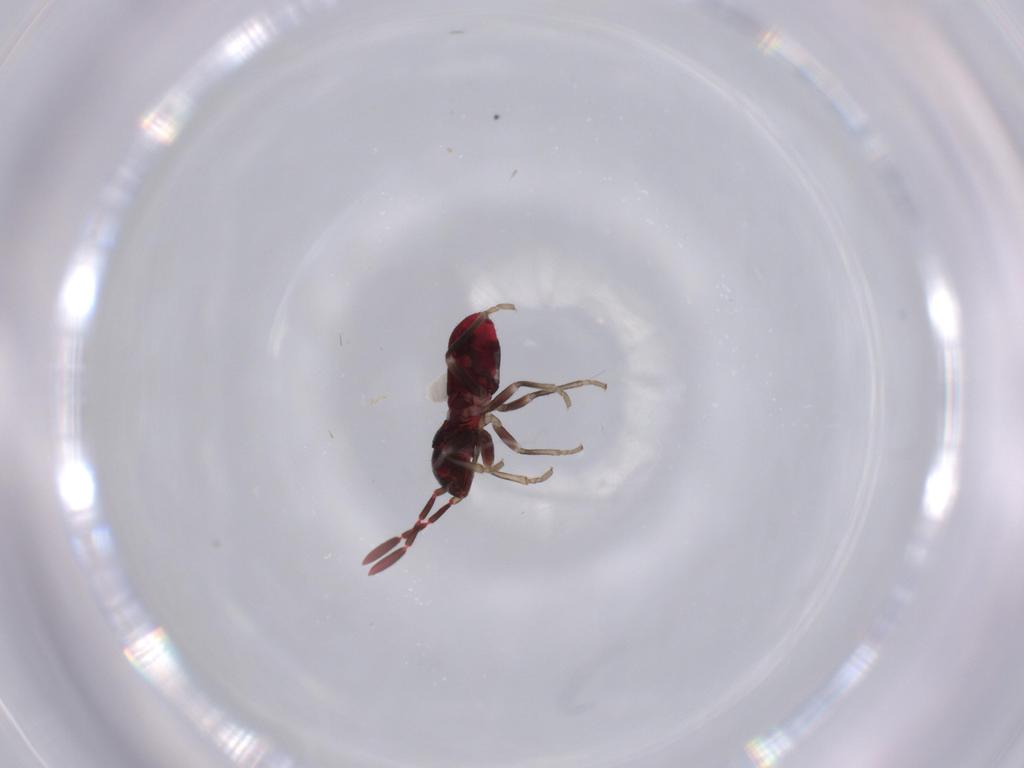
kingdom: Animalia
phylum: Arthropoda
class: Insecta
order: Hemiptera
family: Rhyparochromidae
